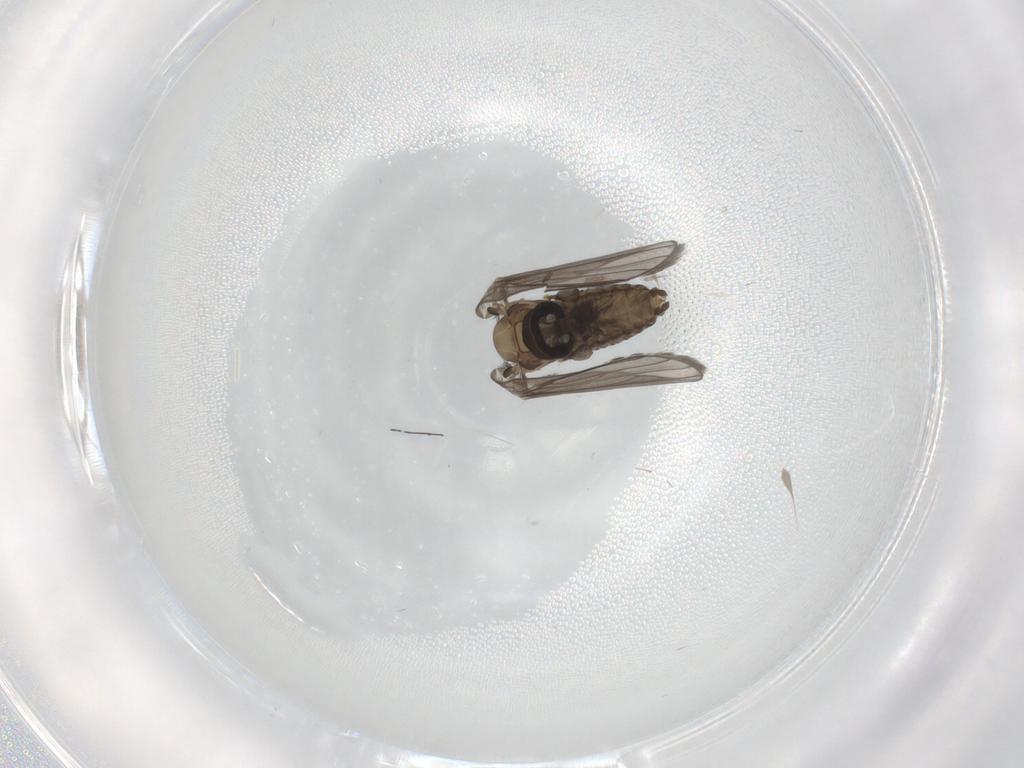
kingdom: Animalia
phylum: Arthropoda
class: Insecta
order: Diptera
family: Psychodidae
